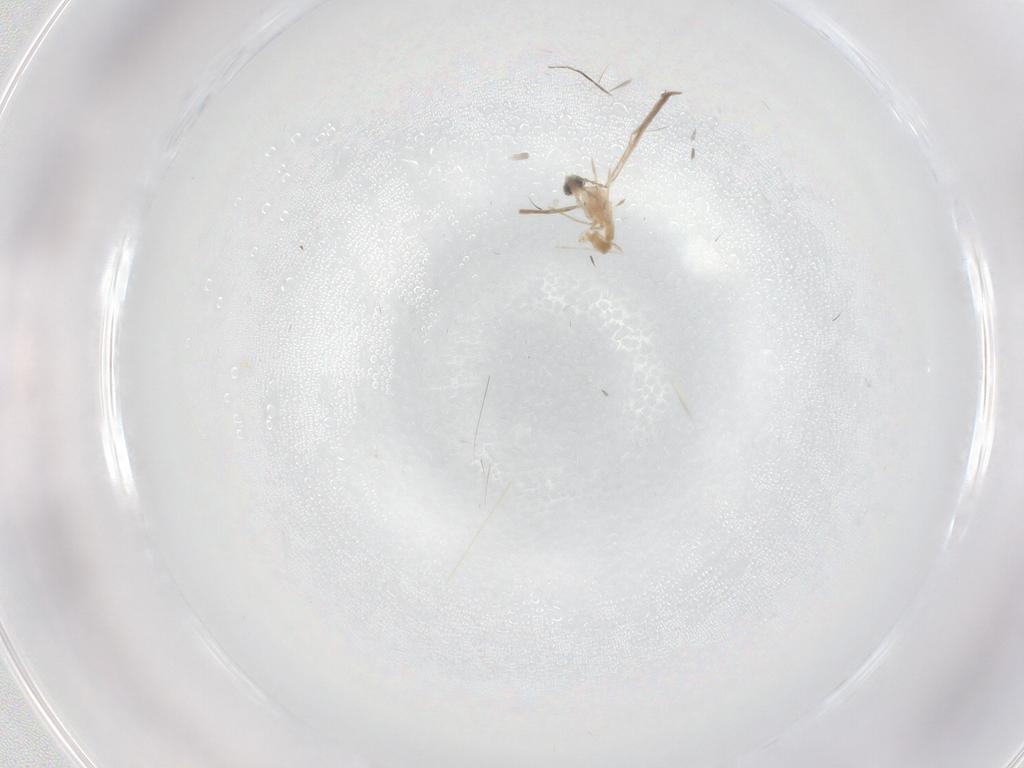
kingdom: Animalia
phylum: Arthropoda
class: Insecta
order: Diptera
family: Cecidomyiidae
